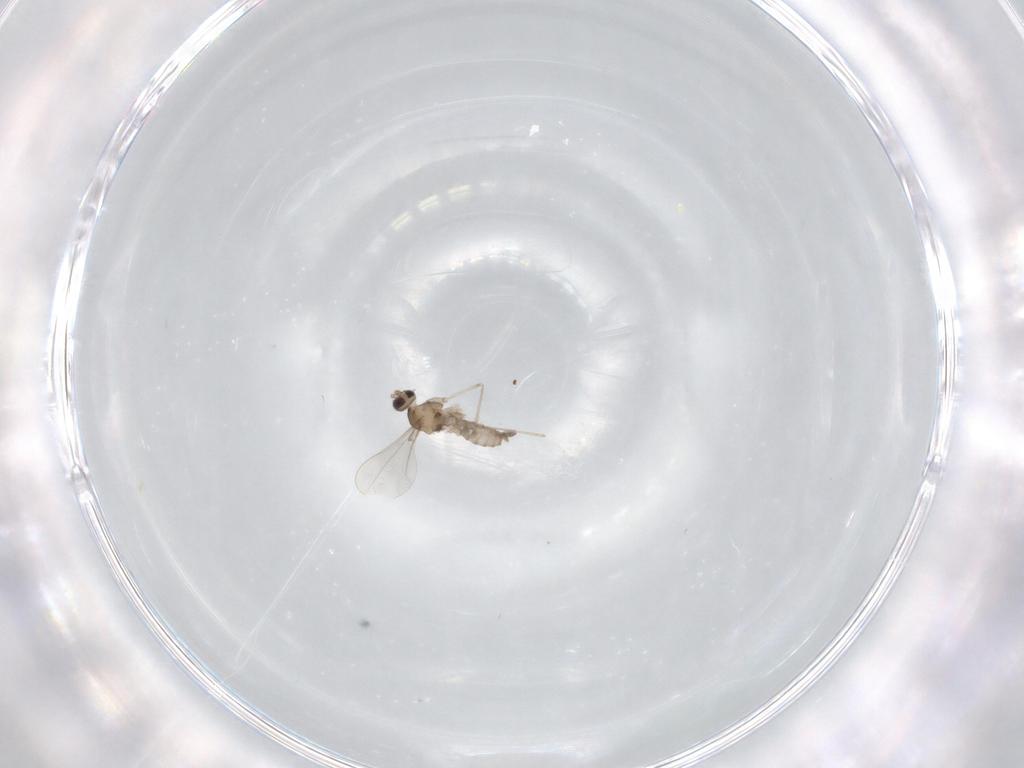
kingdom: Animalia
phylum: Arthropoda
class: Insecta
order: Diptera
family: Cecidomyiidae
